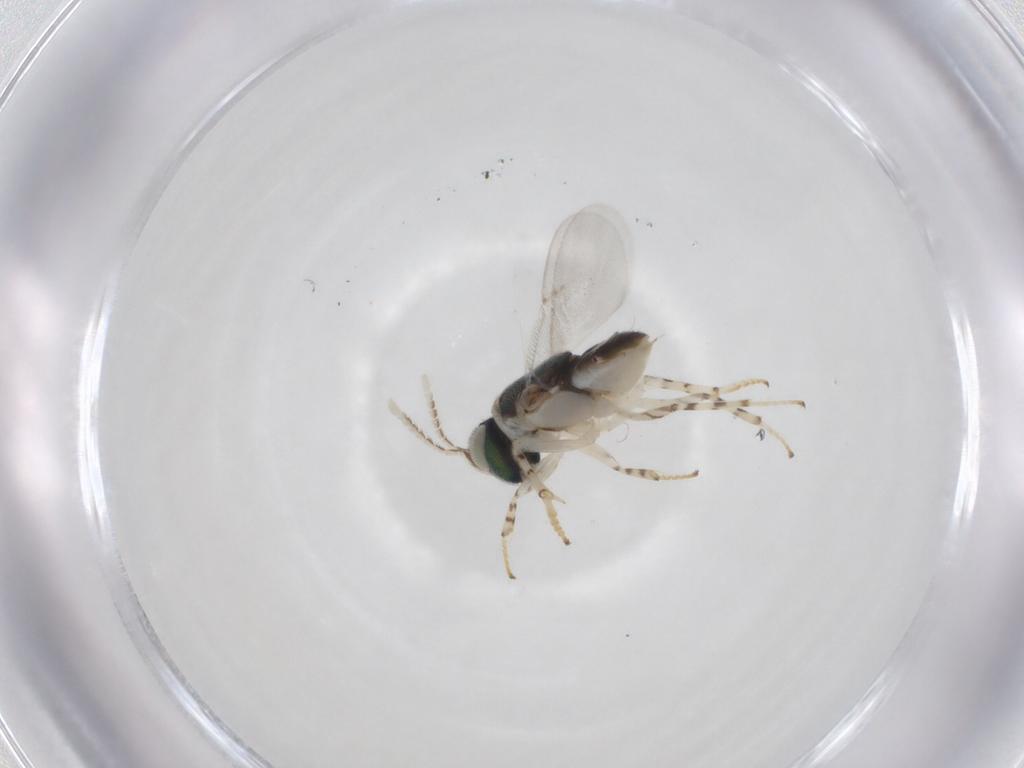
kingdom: Animalia
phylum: Arthropoda
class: Insecta
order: Hymenoptera
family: Encyrtidae
